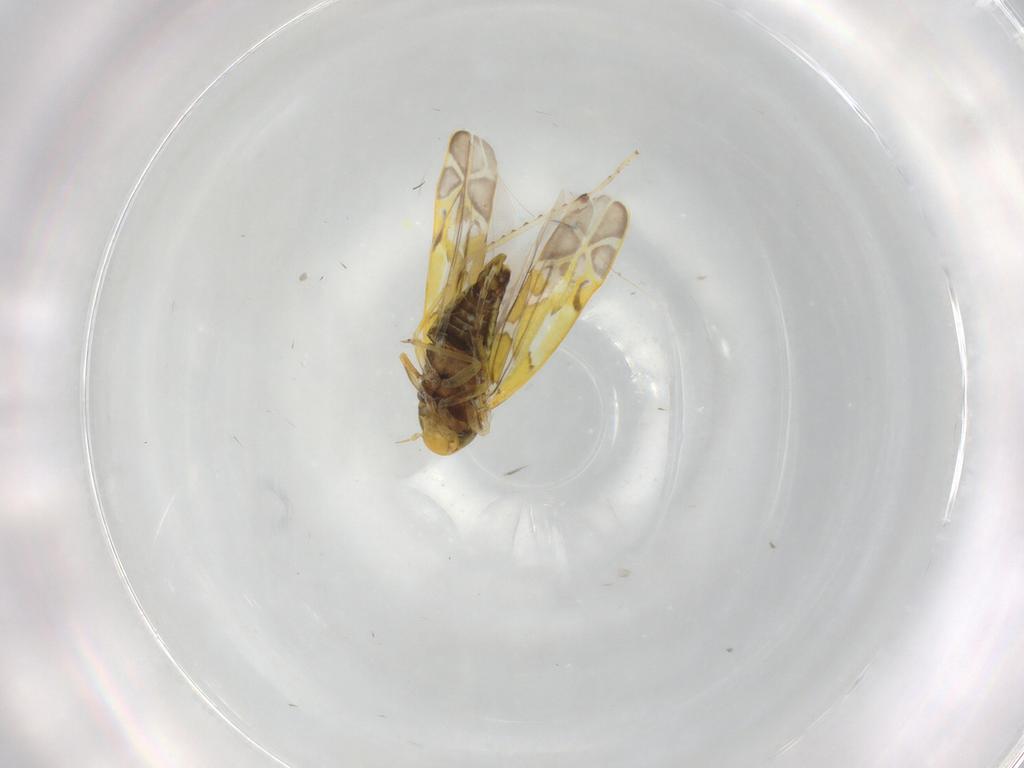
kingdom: Animalia
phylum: Arthropoda
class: Insecta
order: Hemiptera
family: Cicadellidae
